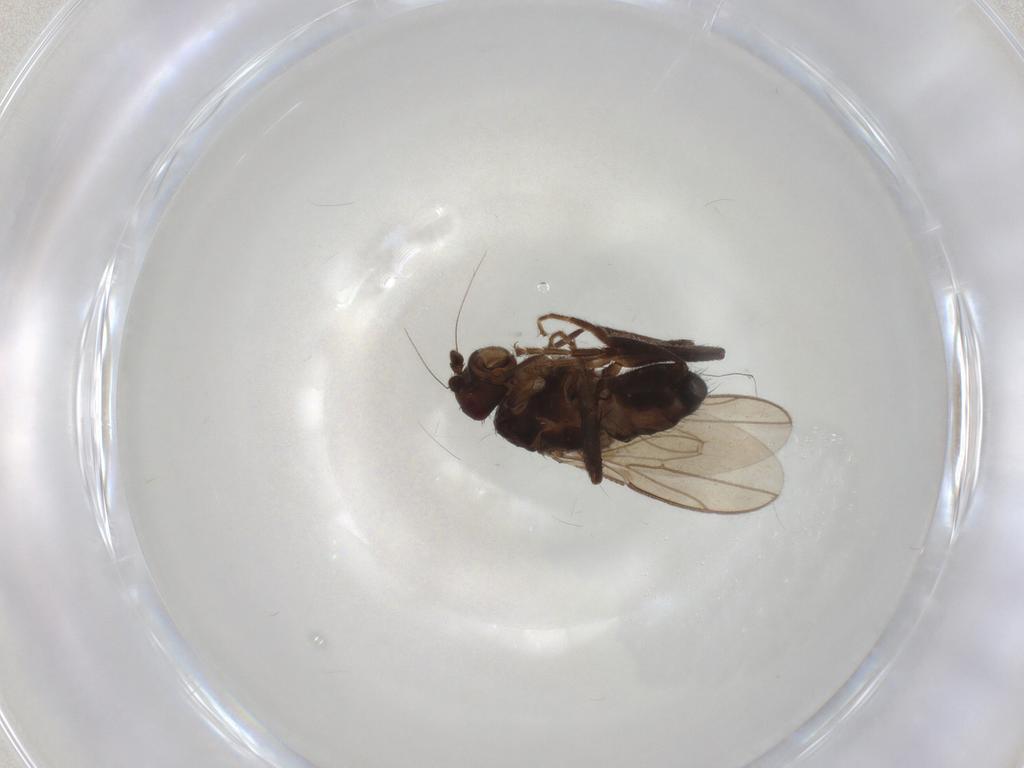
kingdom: Animalia
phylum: Arthropoda
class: Insecta
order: Diptera
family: Sphaeroceridae
